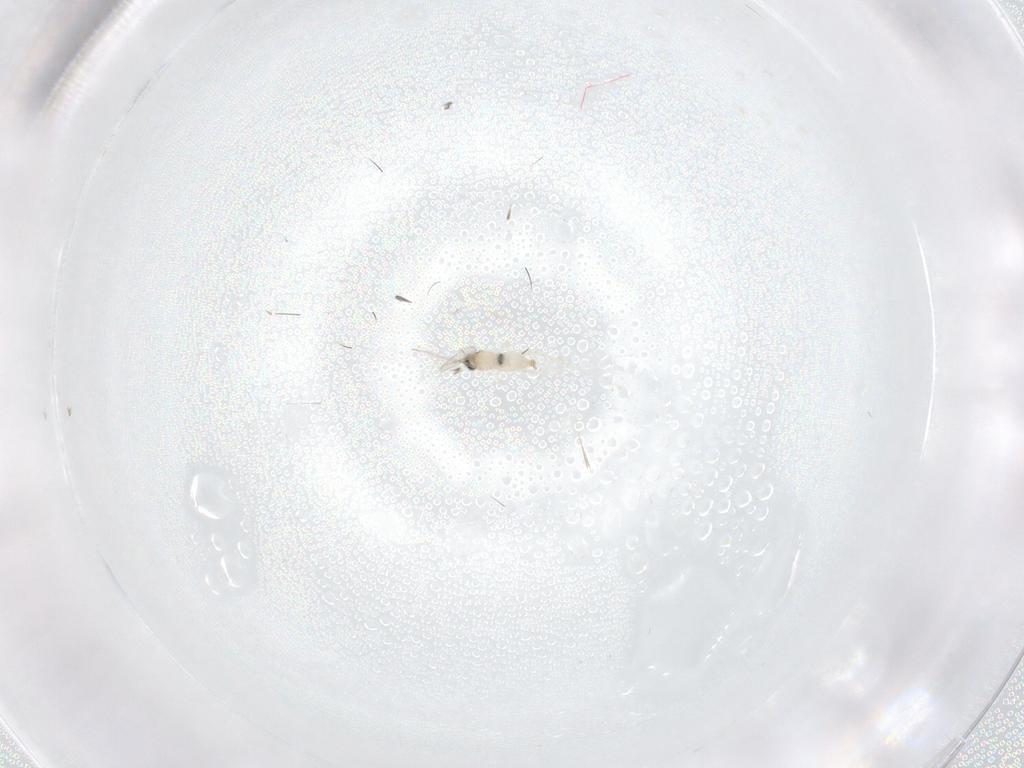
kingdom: Animalia
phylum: Arthropoda
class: Insecta
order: Diptera
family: Cecidomyiidae
